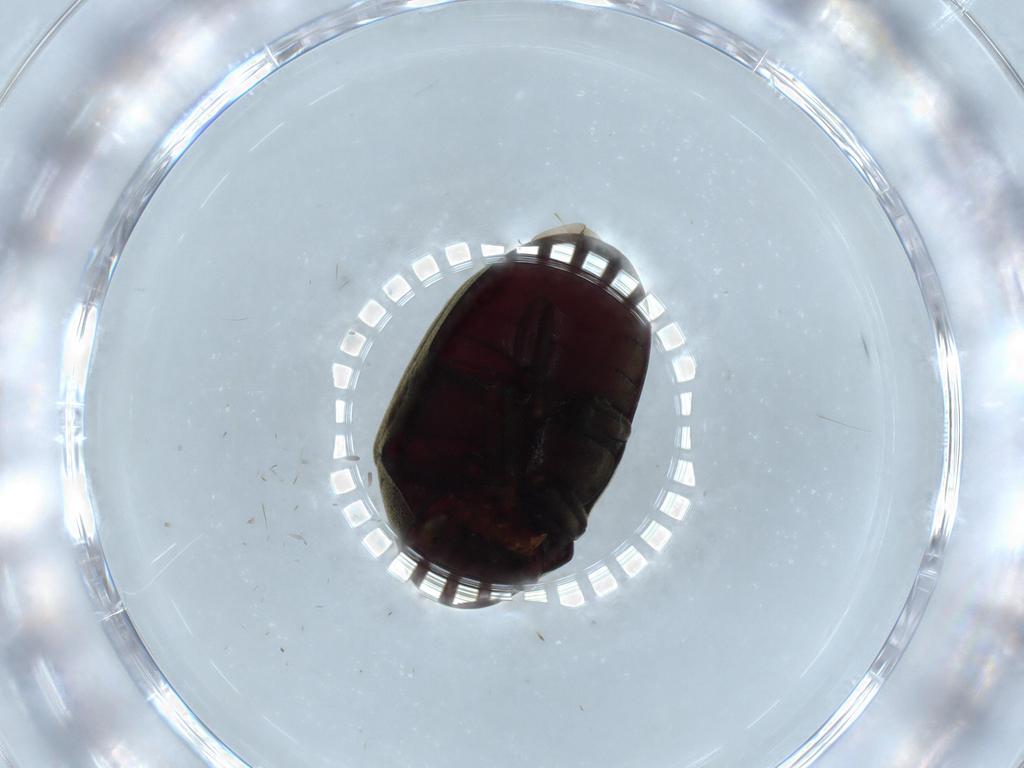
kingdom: Animalia
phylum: Arthropoda
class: Insecta
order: Coleoptera
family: Ptinidae
